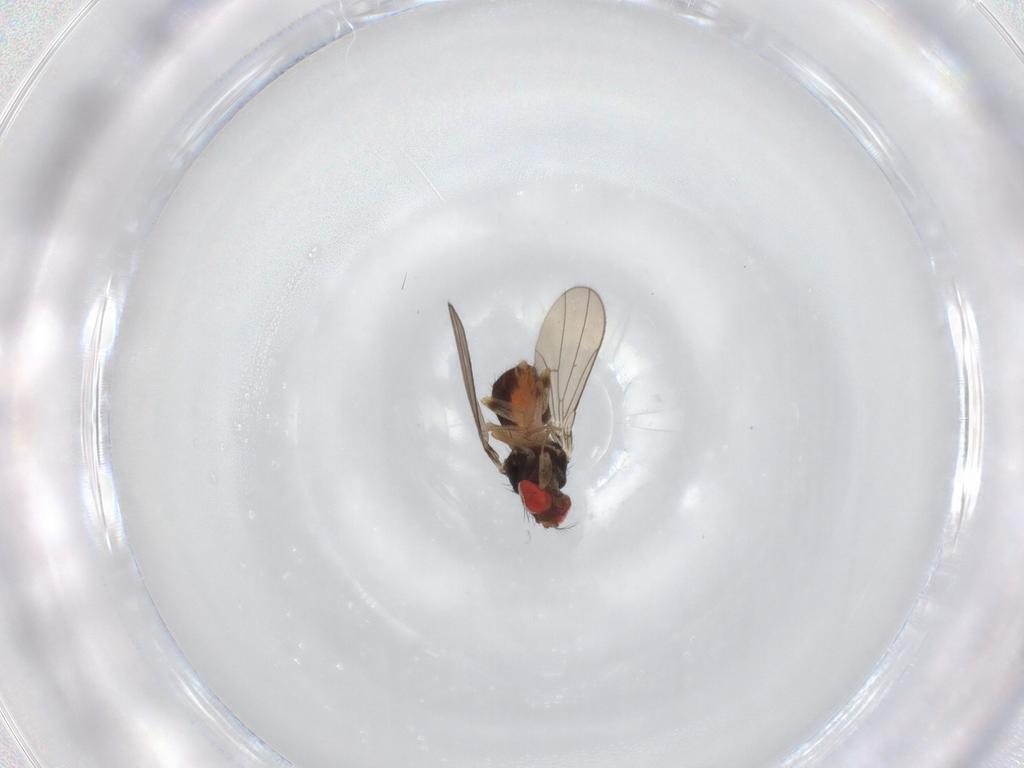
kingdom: Animalia
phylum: Arthropoda
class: Insecta
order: Diptera
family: Drosophilidae
